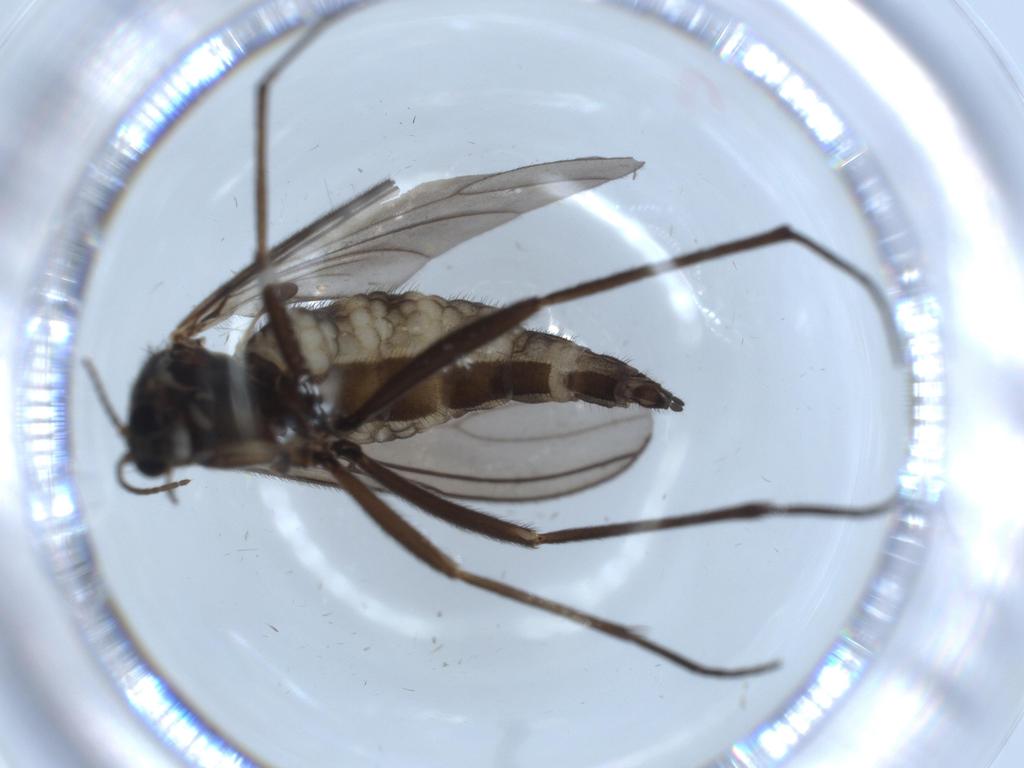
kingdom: Animalia
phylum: Arthropoda
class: Insecta
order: Diptera
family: Sciaridae
